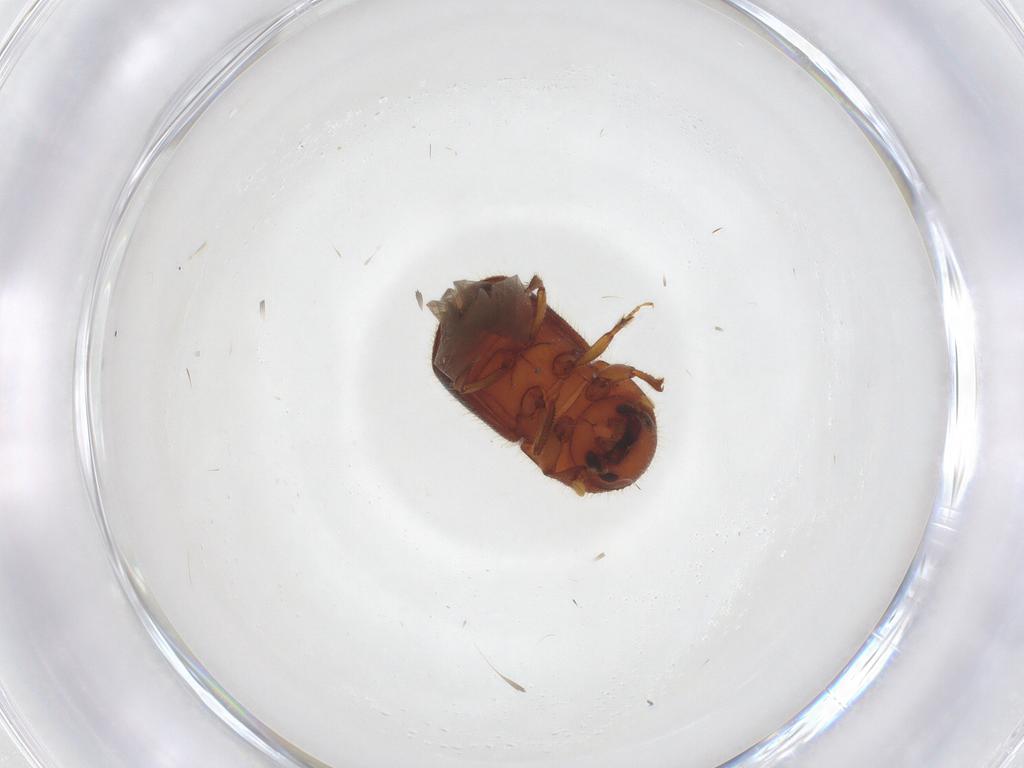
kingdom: Animalia
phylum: Arthropoda
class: Insecta
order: Coleoptera
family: Curculionidae
